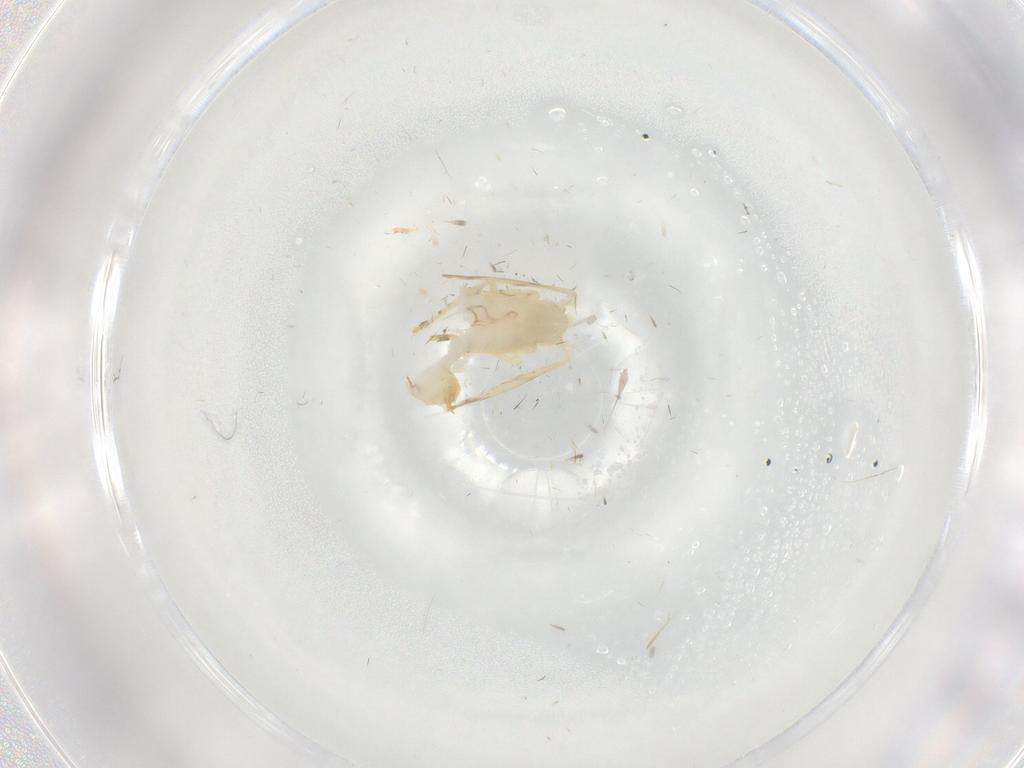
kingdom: Animalia
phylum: Arthropoda
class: Insecta
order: Diptera
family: Psychodidae
